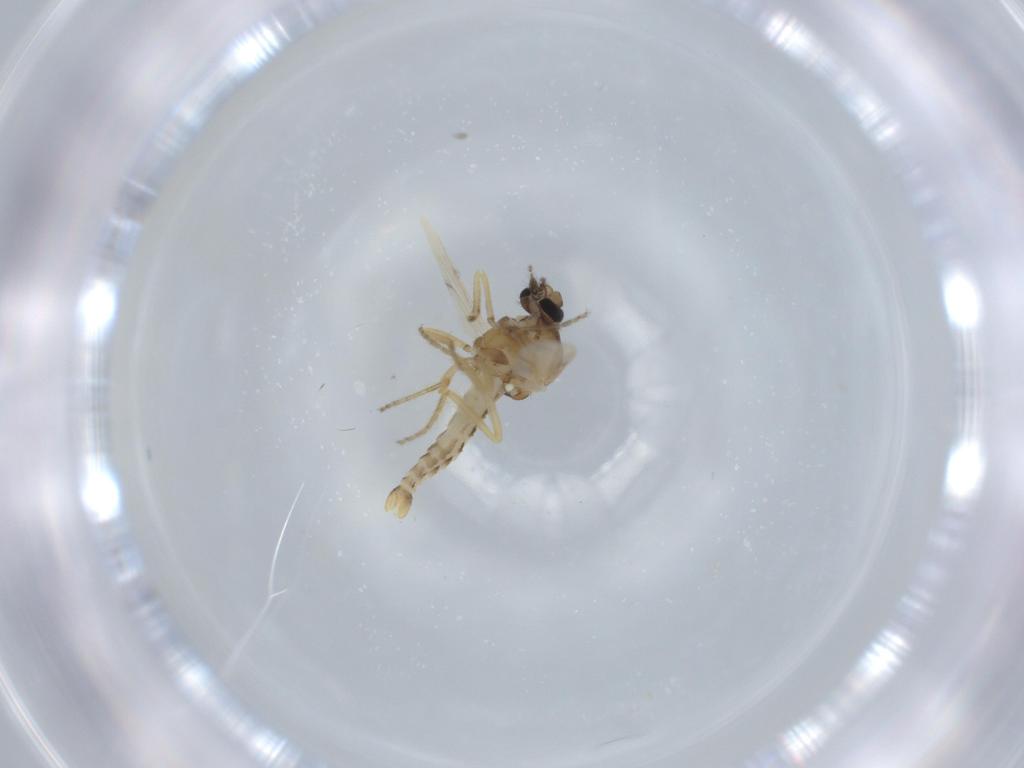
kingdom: Animalia
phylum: Arthropoda
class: Insecta
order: Diptera
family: Ceratopogonidae
